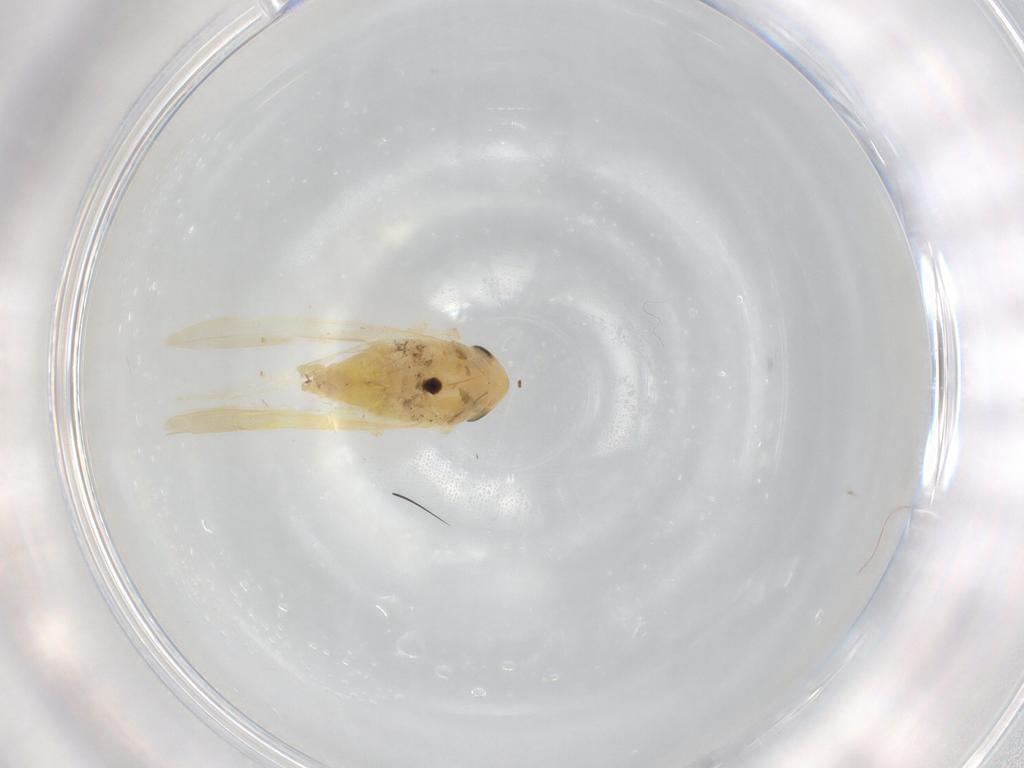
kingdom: Animalia
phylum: Arthropoda
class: Insecta
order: Hemiptera
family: Cicadellidae
